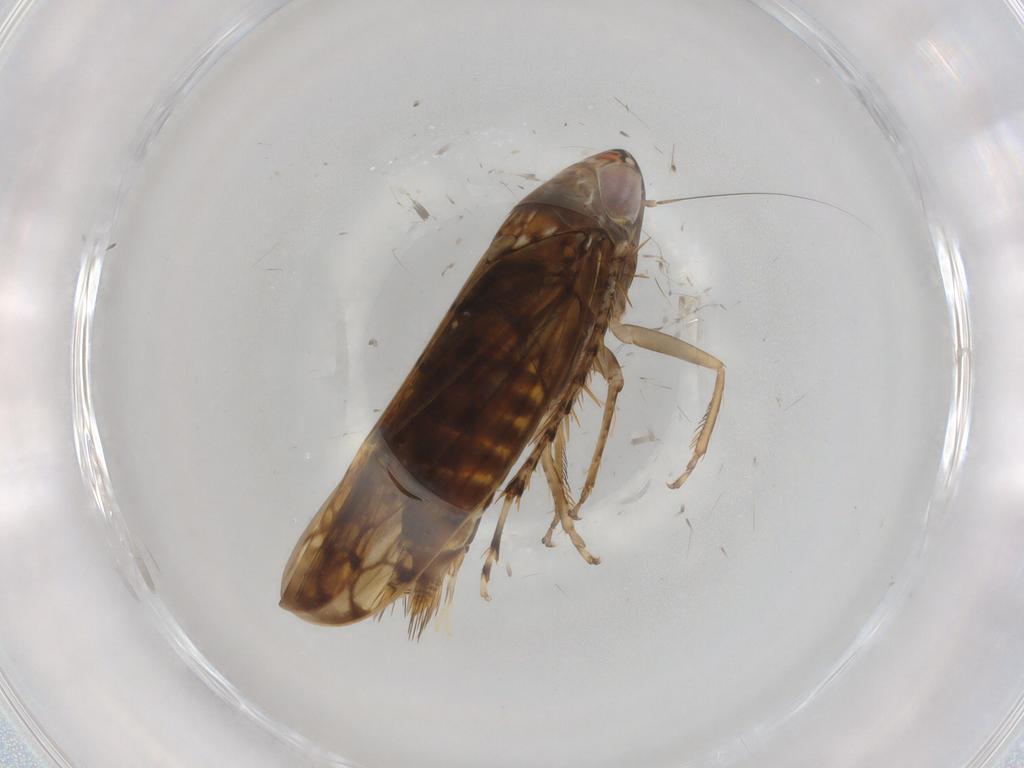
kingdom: Animalia
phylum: Arthropoda
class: Insecta
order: Hemiptera
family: Cicadellidae
